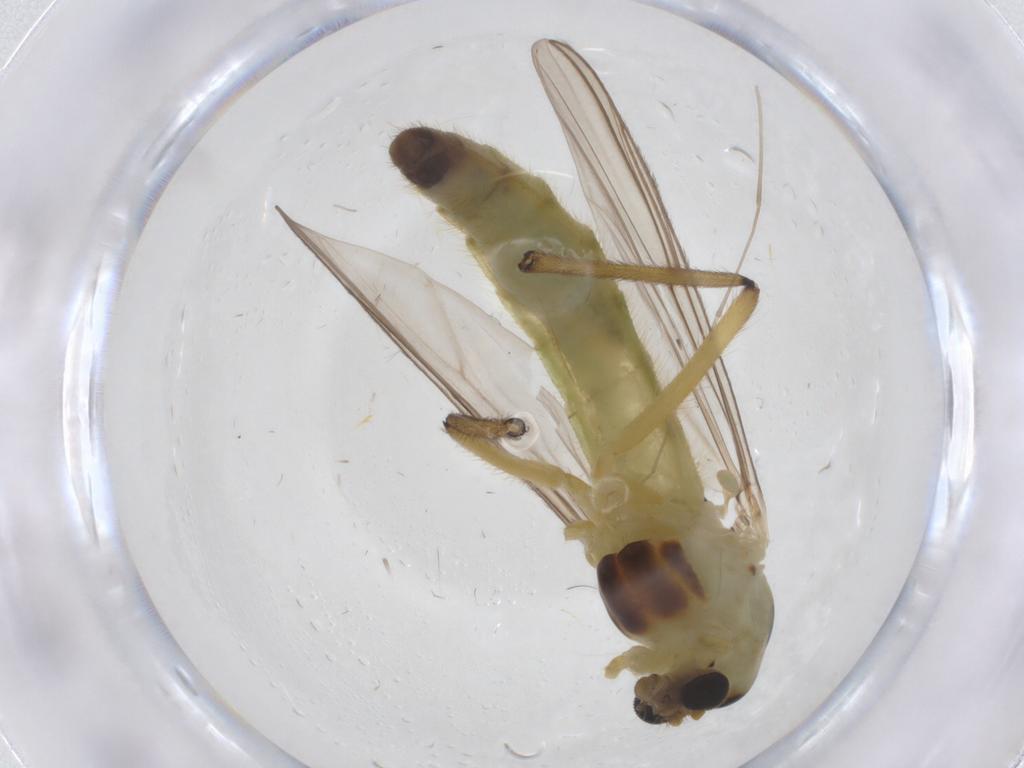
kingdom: Animalia
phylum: Arthropoda
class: Insecta
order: Diptera
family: Chironomidae
